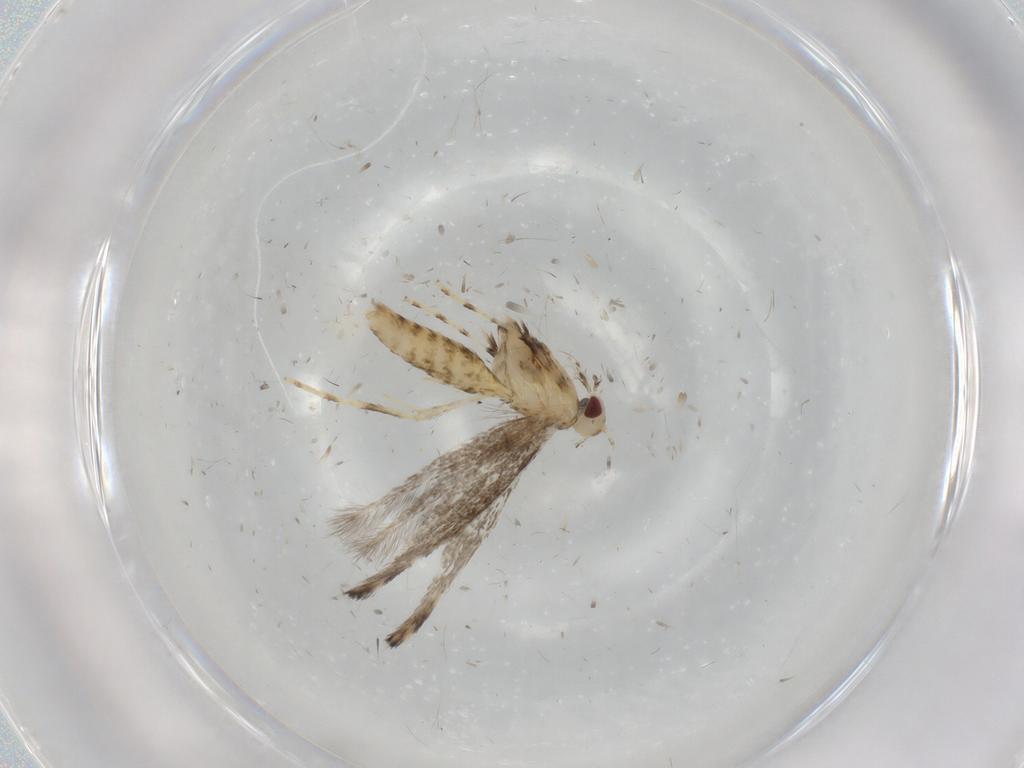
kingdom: Animalia
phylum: Arthropoda
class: Insecta
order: Lepidoptera
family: Gracillariidae
